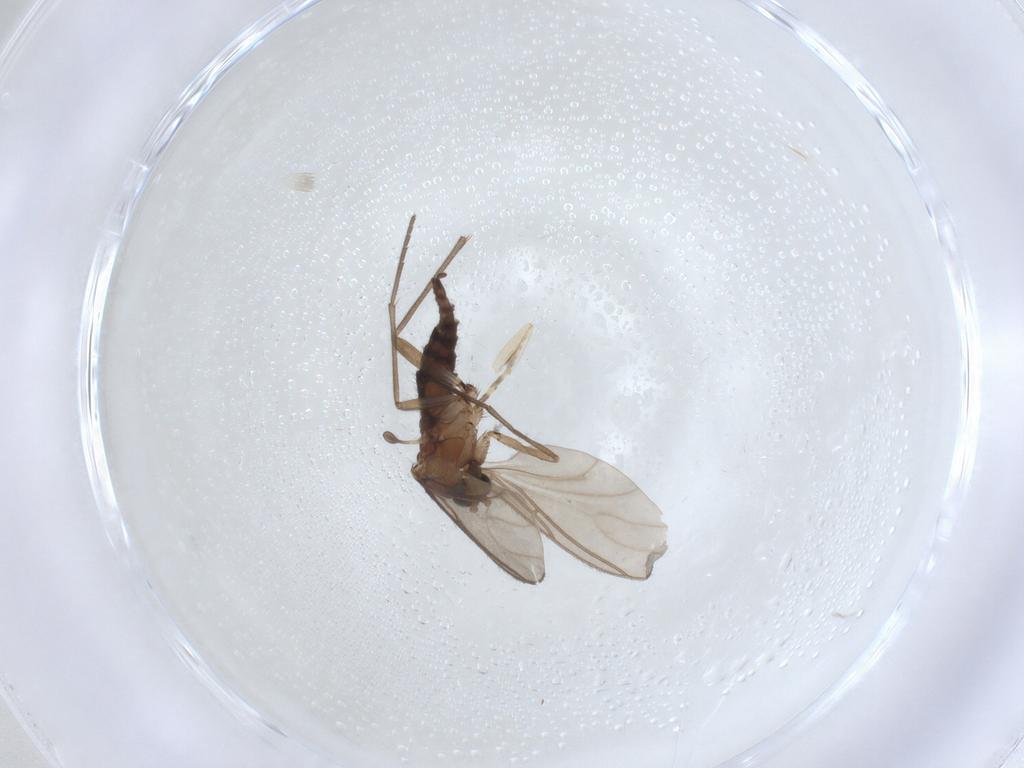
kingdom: Animalia
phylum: Arthropoda
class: Insecta
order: Diptera
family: Sciaridae
